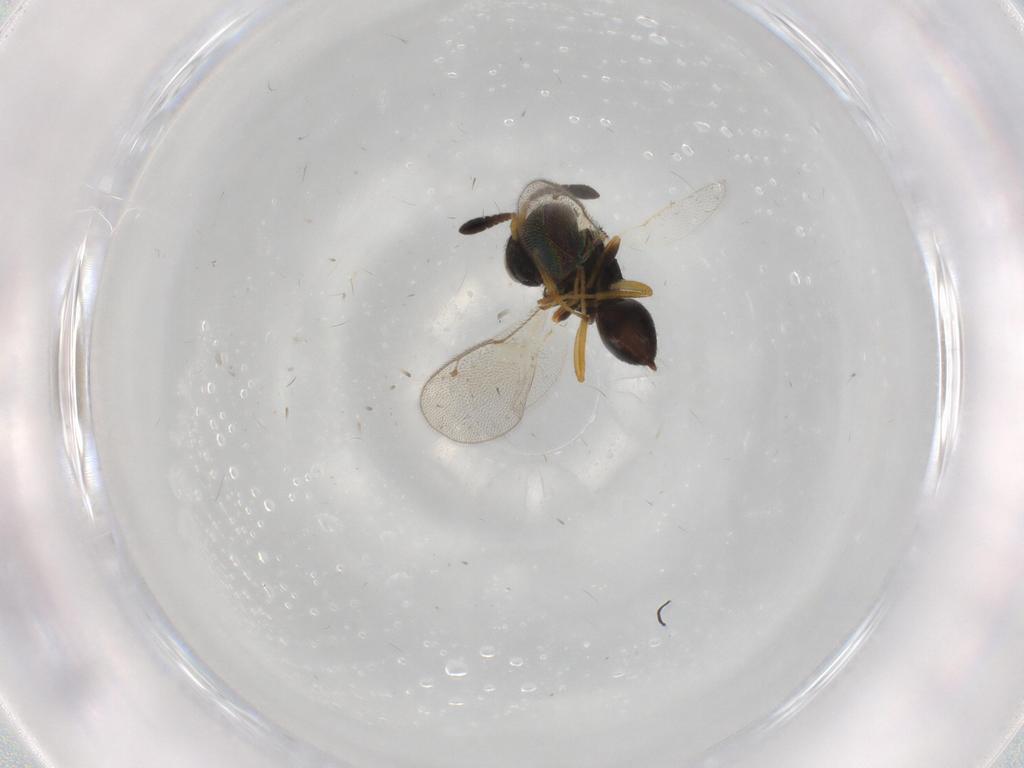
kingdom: Animalia
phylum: Arthropoda
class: Insecta
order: Hymenoptera
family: Pteromalidae
